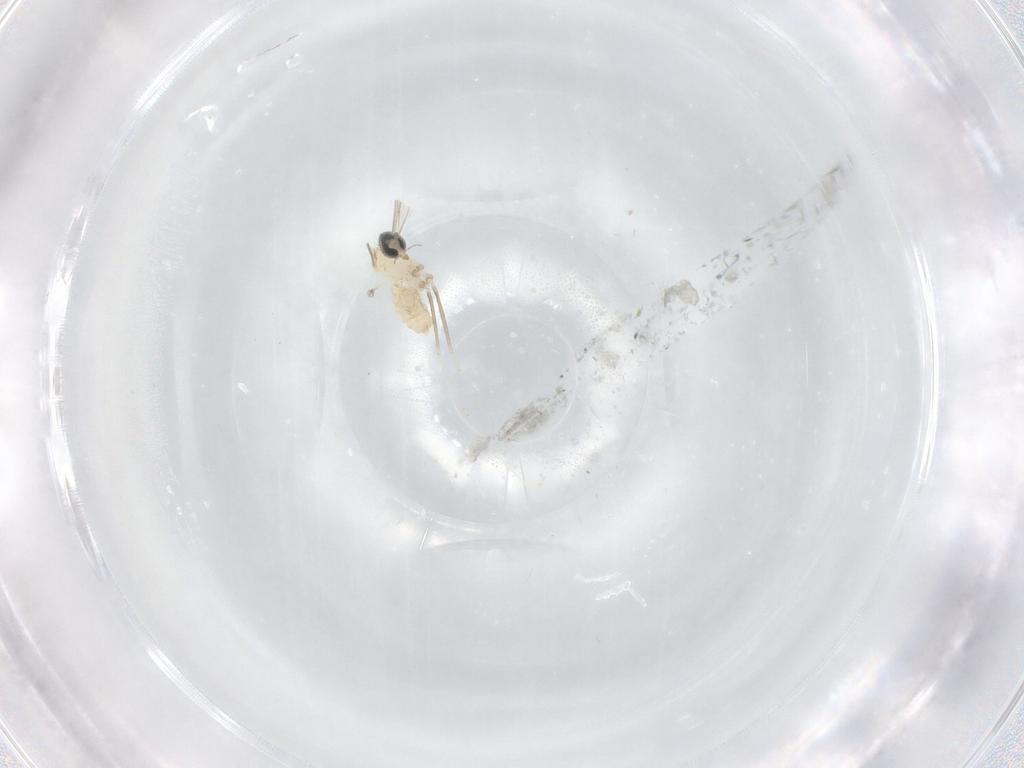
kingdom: Animalia
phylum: Arthropoda
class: Insecta
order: Diptera
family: Cecidomyiidae
